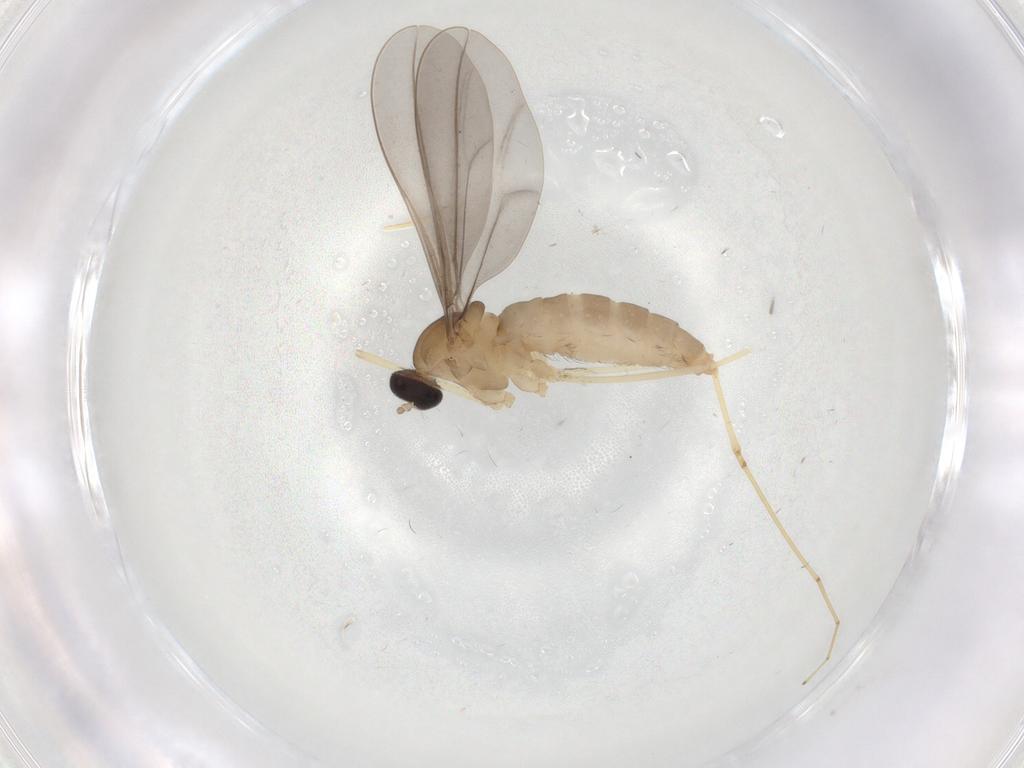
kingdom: Animalia
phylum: Arthropoda
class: Insecta
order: Diptera
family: Cecidomyiidae
